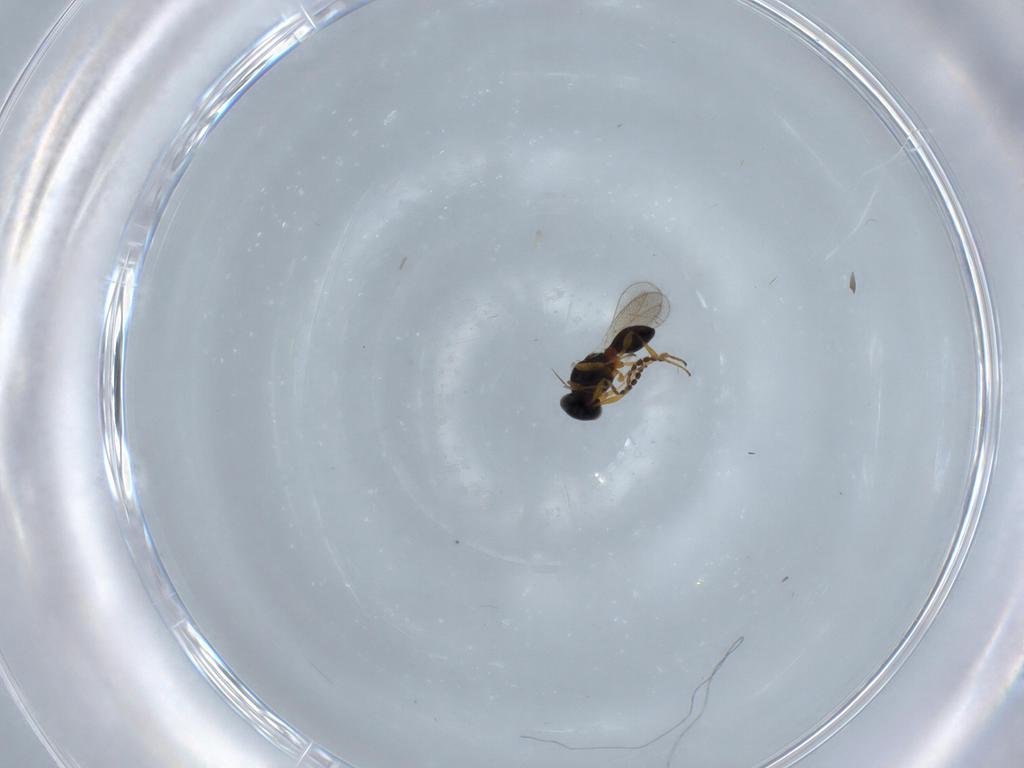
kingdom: Animalia
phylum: Arthropoda
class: Insecta
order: Hymenoptera
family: Platygastridae
